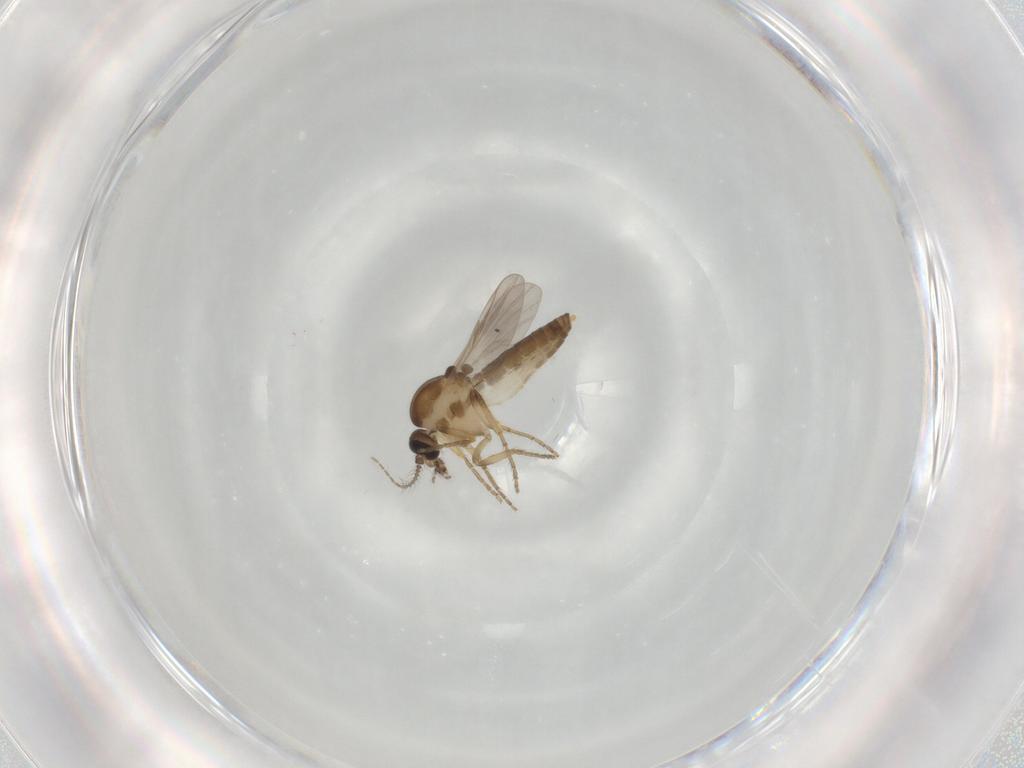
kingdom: Animalia
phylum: Arthropoda
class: Insecta
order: Diptera
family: Ceratopogonidae
